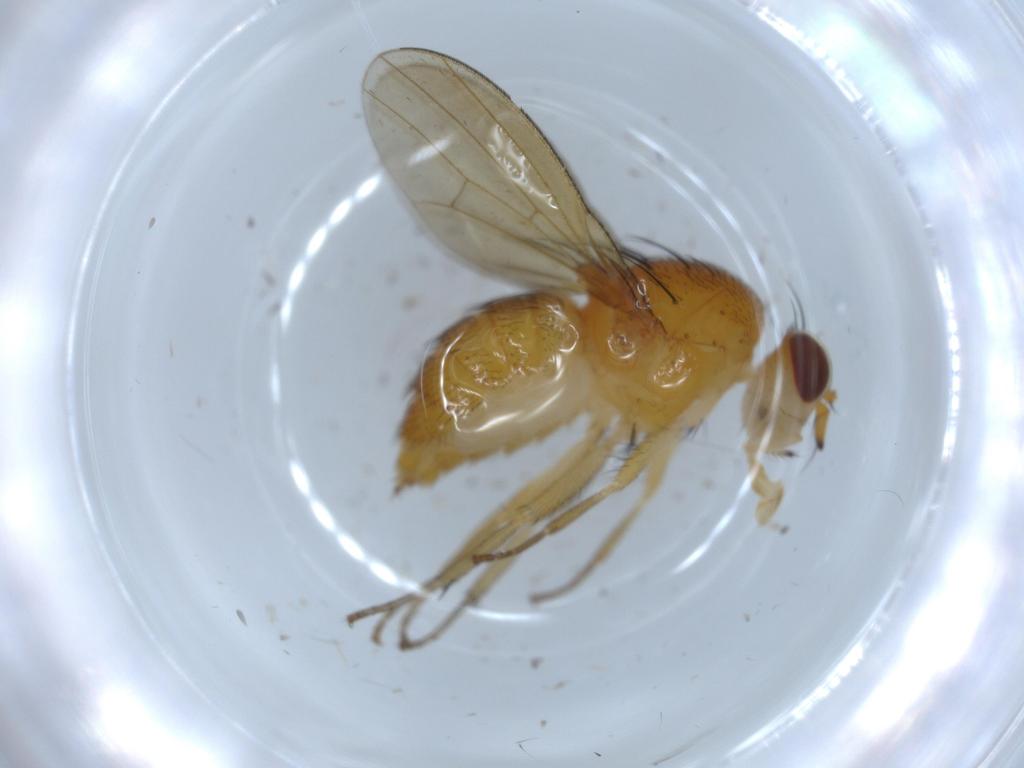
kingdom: Animalia
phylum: Arthropoda
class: Insecta
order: Diptera
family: Lauxaniidae
